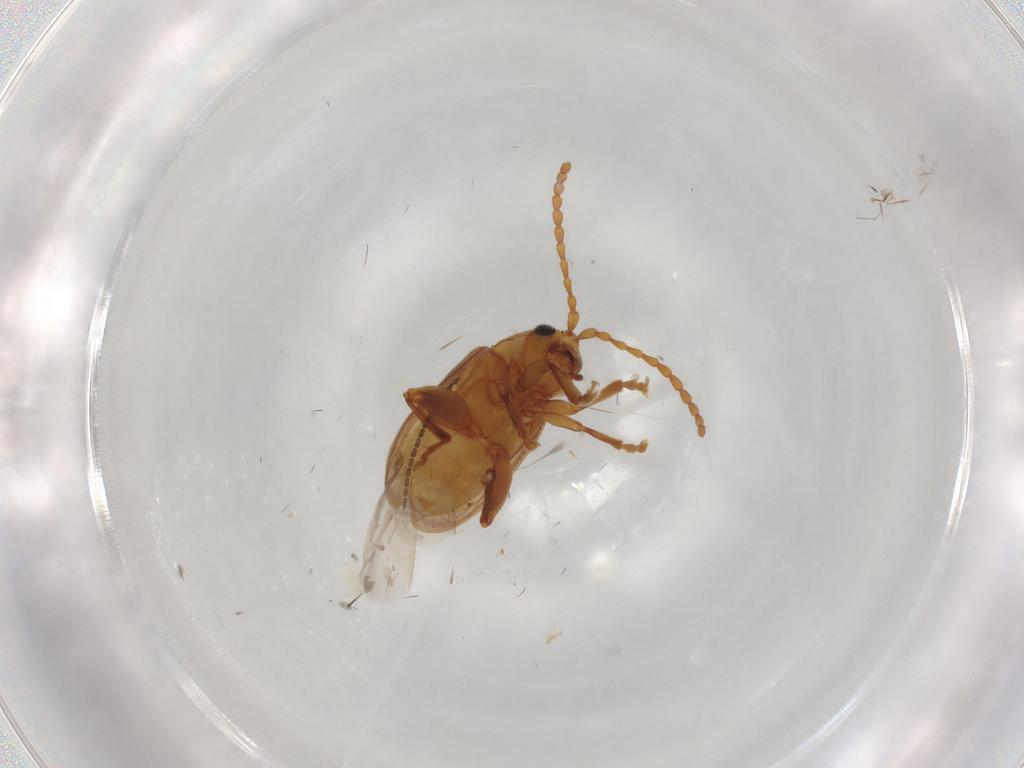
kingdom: Animalia
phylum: Arthropoda
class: Insecta
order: Coleoptera
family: Chrysomelidae
